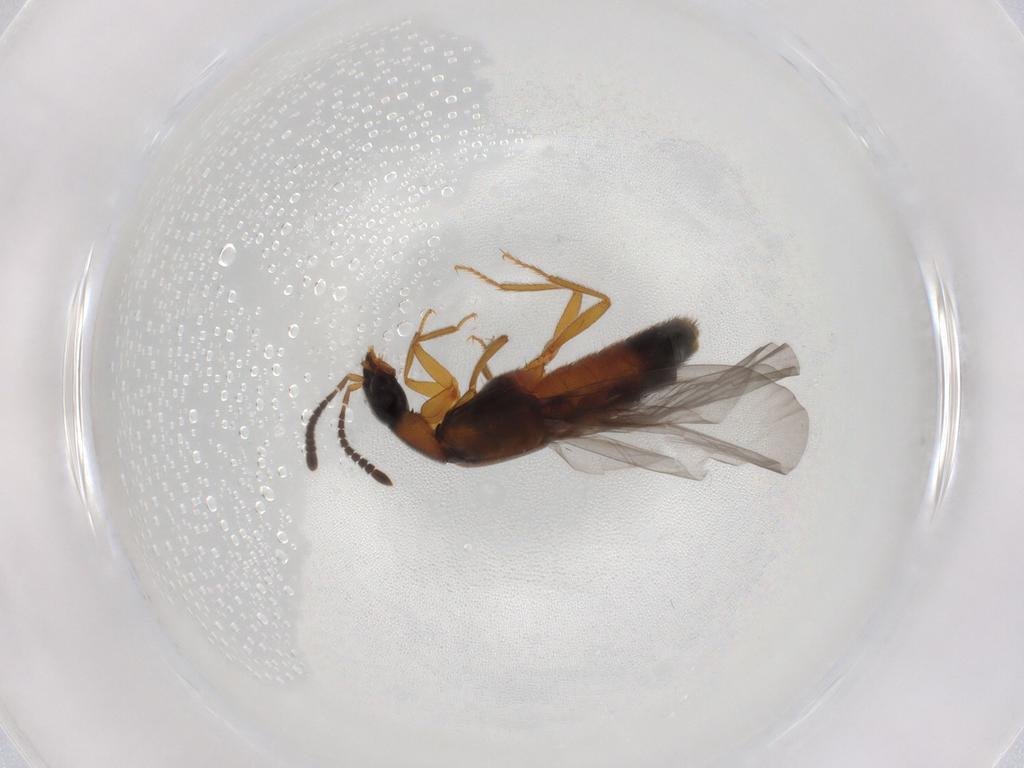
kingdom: Animalia
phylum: Arthropoda
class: Insecta
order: Coleoptera
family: Staphylinidae
